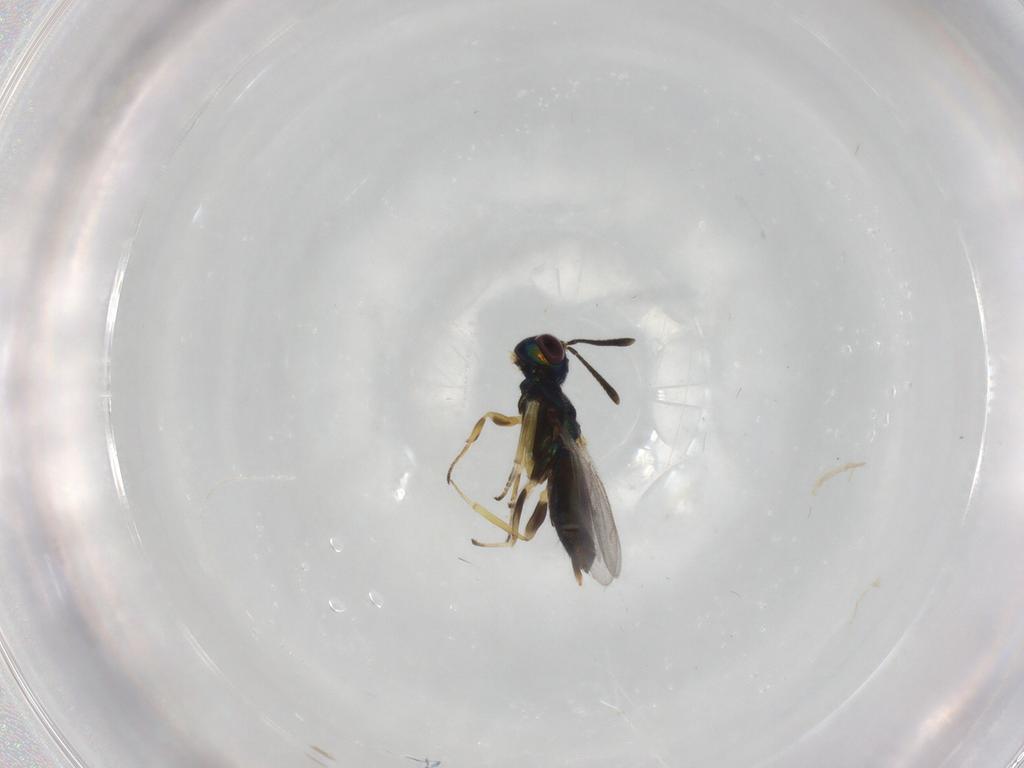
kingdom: Animalia
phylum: Arthropoda
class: Insecta
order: Hymenoptera
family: Eupelmidae
